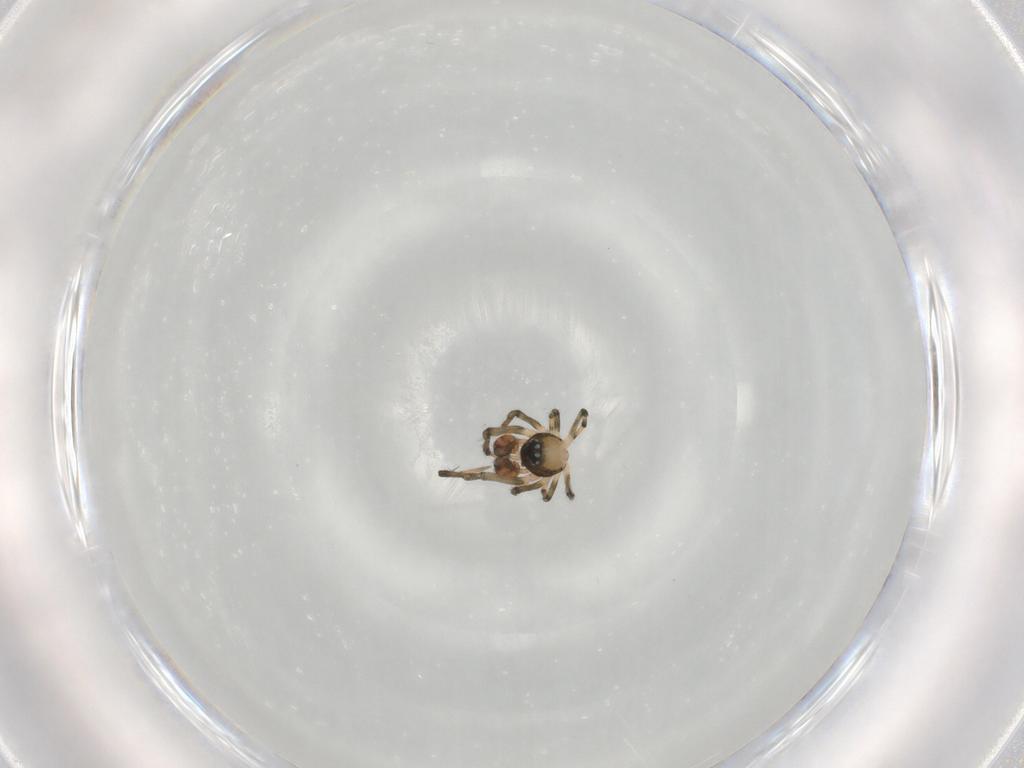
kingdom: Animalia
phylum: Arthropoda
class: Arachnida
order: Araneae
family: Mysmenidae
